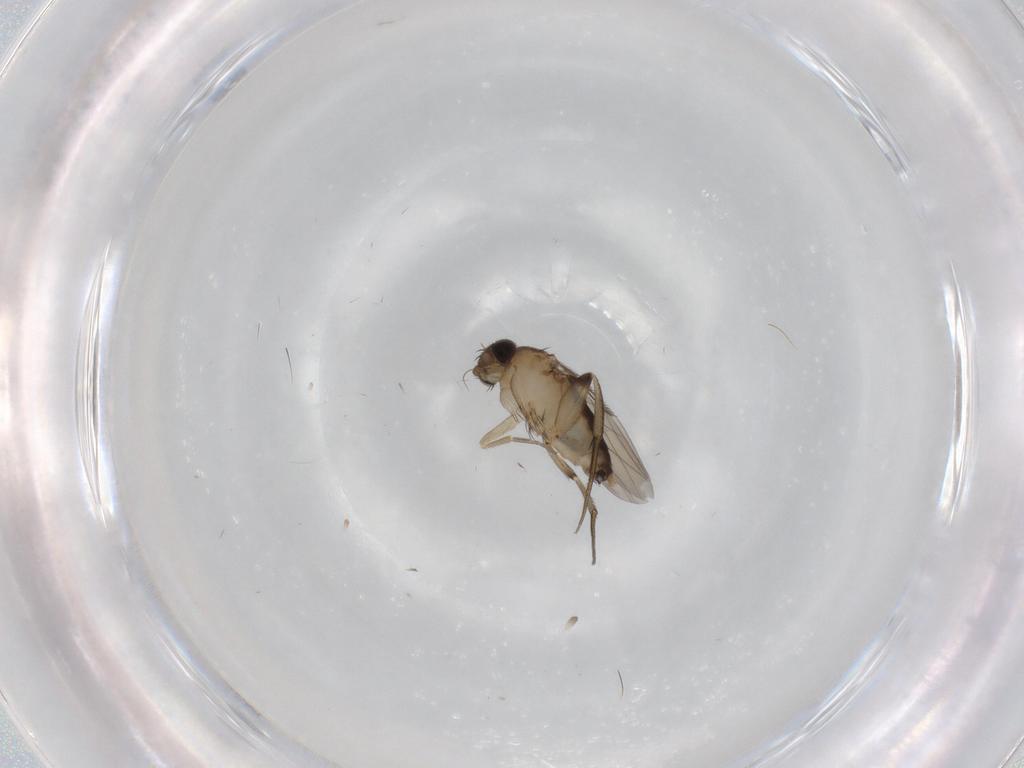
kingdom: Animalia
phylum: Arthropoda
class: Insecta
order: Diptera
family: Phoridae
